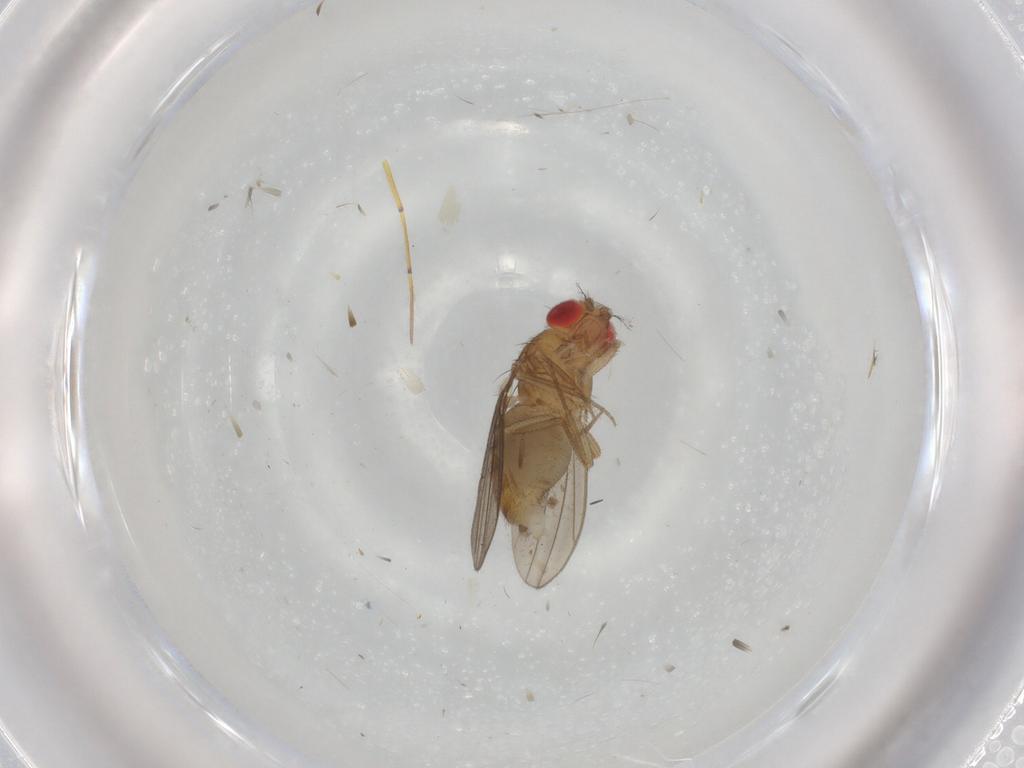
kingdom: Animalia
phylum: Arthropoda
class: Insecta
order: Diptera
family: Drosophilidae
